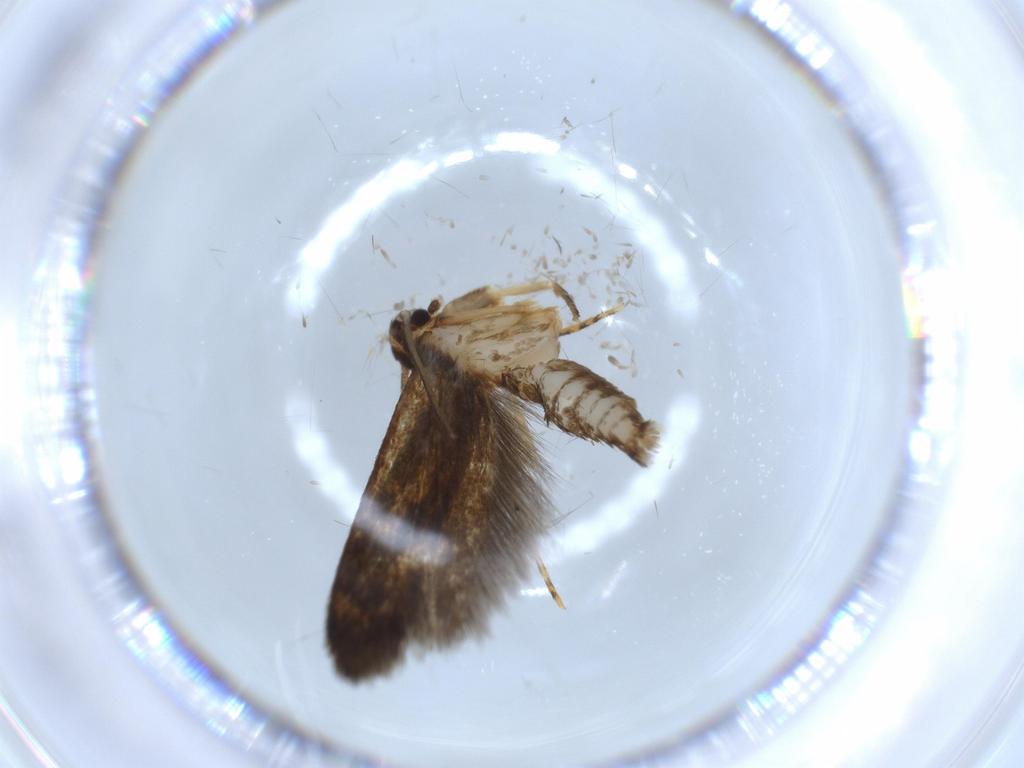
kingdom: Animalia
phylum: Arthropoda
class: Insecta
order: Lepidoptera
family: Tineidae
